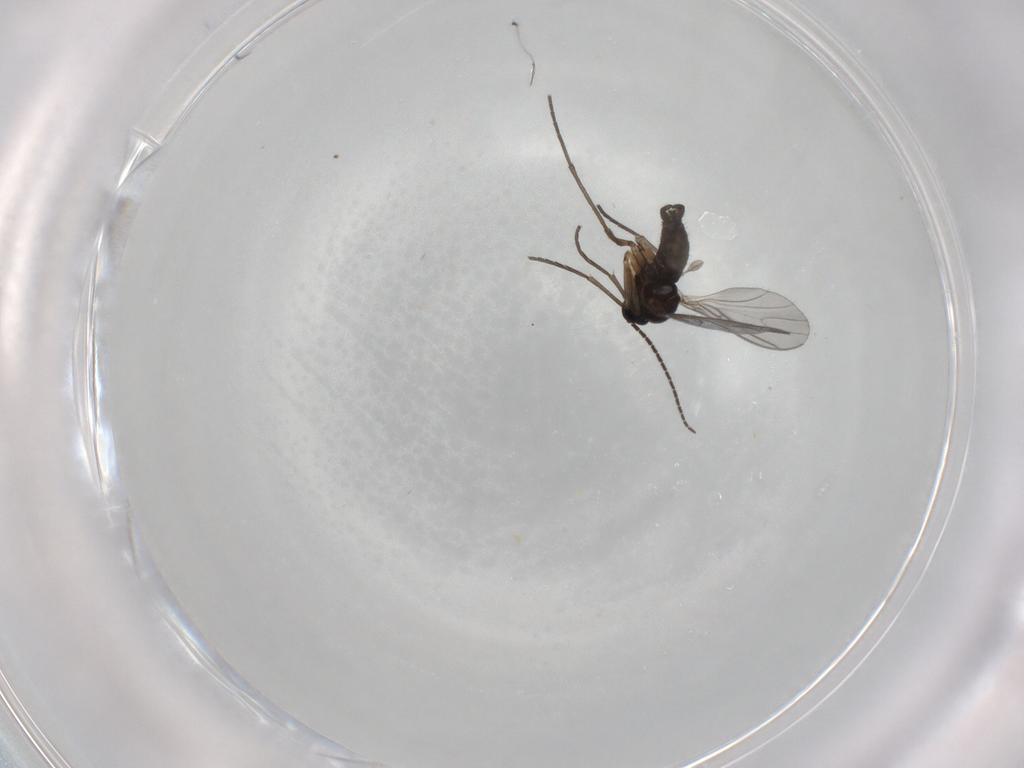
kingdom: Animalia
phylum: Arthropoda
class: Insecta
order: Diptera
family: Sciaridae
